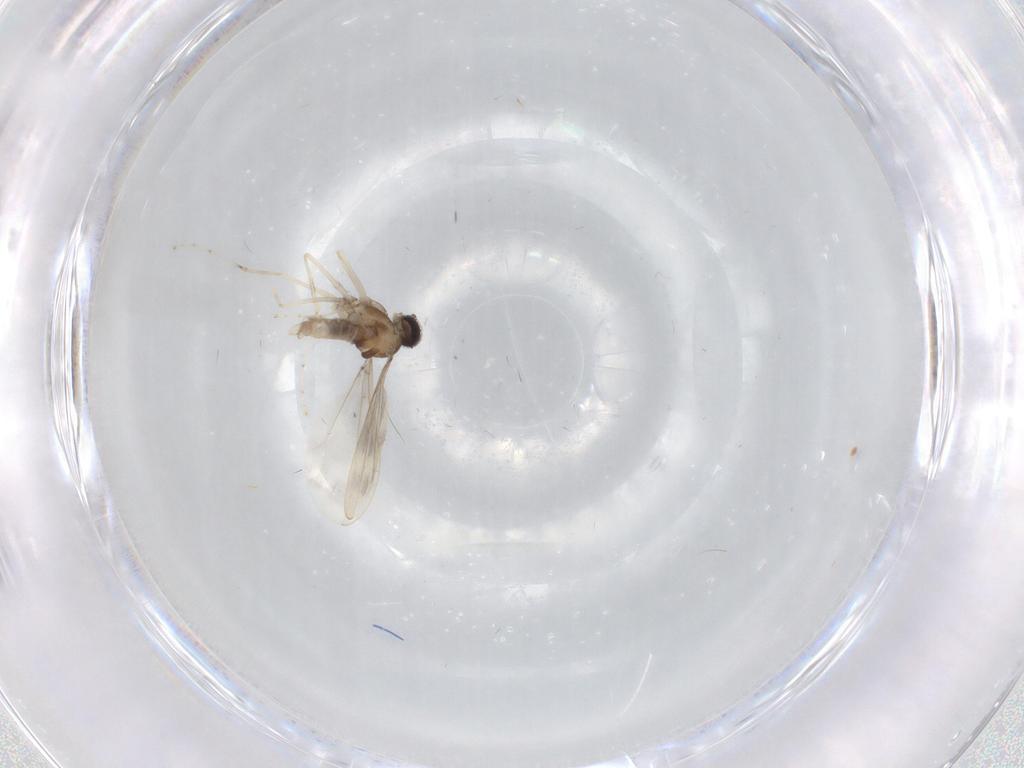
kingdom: Animalia
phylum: Arthropoda
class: Insecta
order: Diptera
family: Cecidomyiidae
